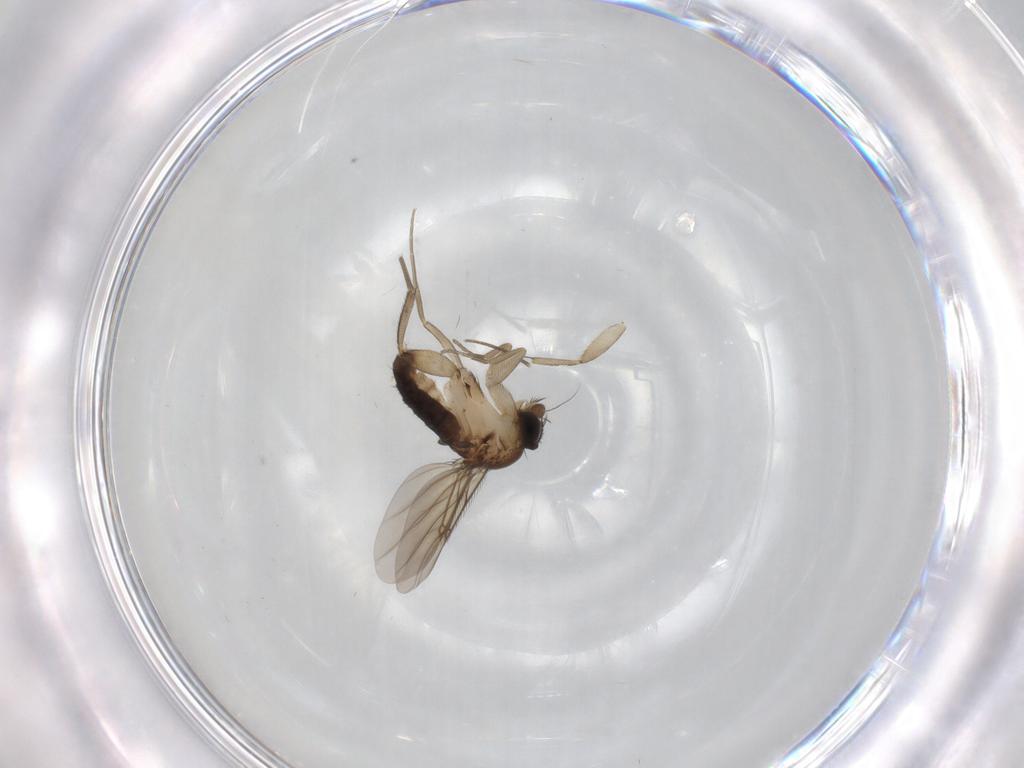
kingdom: Animalia
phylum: Arthropoda
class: Insecta
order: Diptera
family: Phoridae
